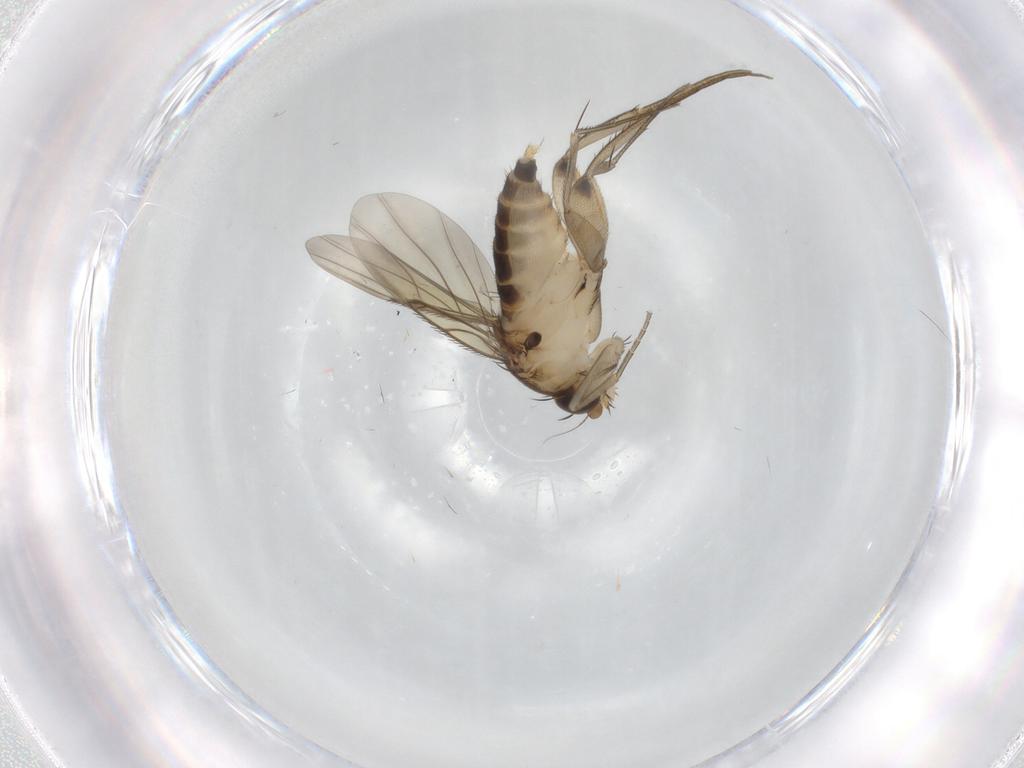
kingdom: Animalia
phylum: Arthropoda
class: Insecta
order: Diptera
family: Phoridae
